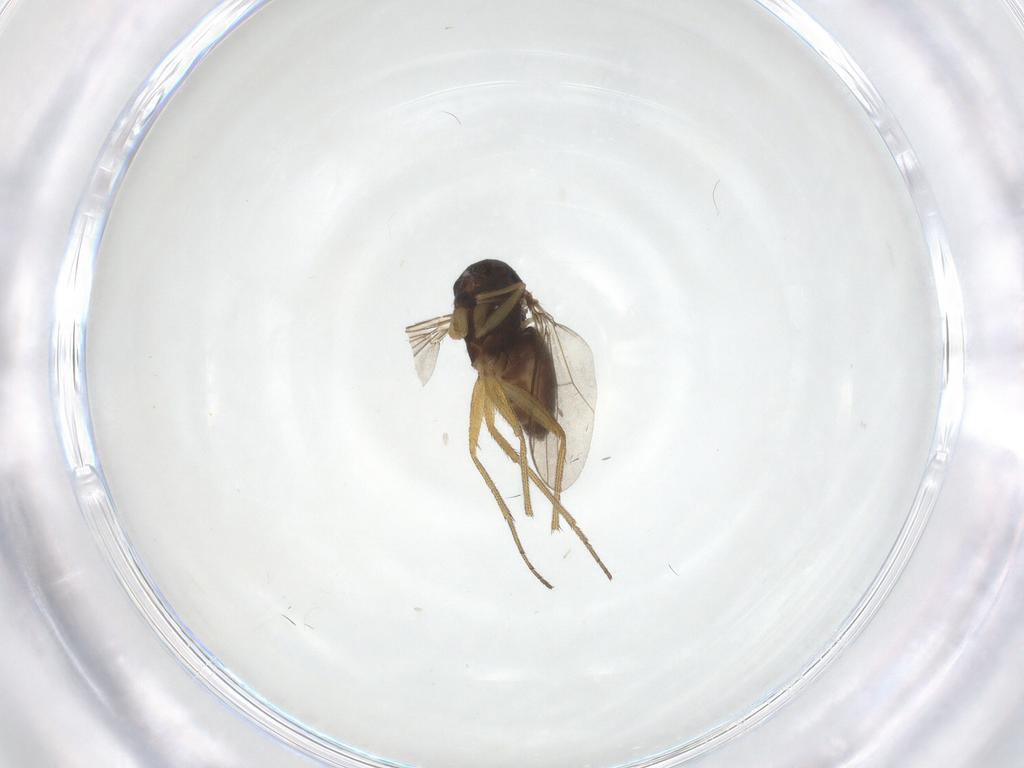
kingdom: Animalia
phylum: Arthropoda
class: Insecta
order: Diptera
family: Dolichopodidae
